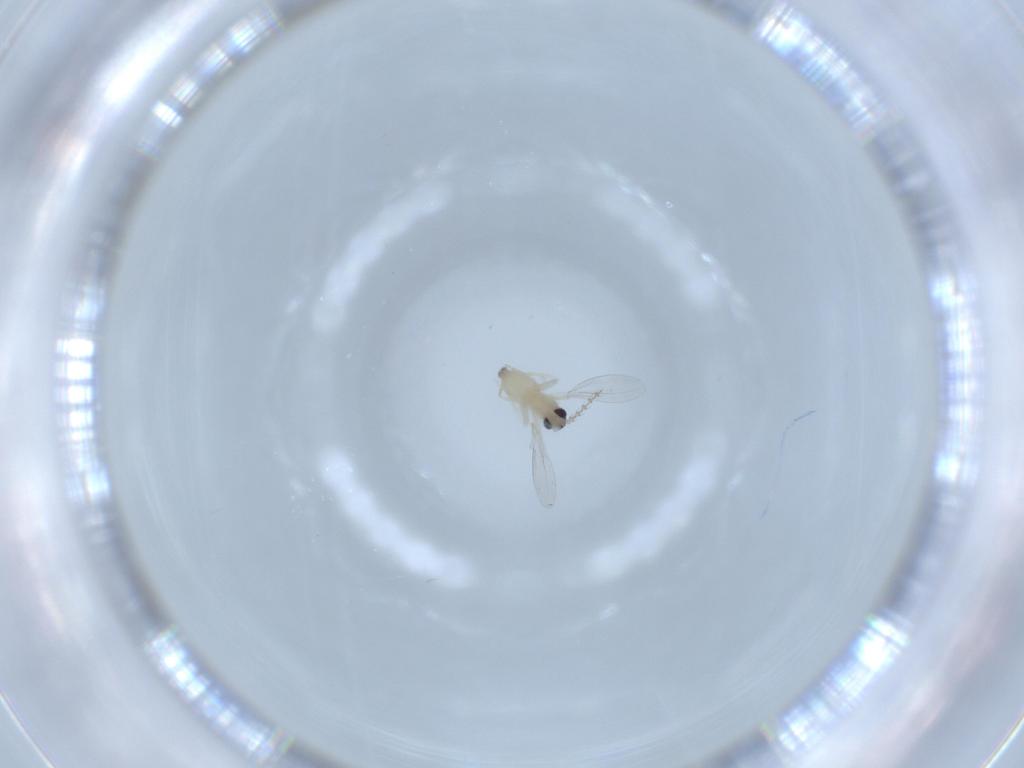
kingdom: Animalia
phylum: Arthropoda
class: Insecta
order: Diptera
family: Cecidomyiidae
